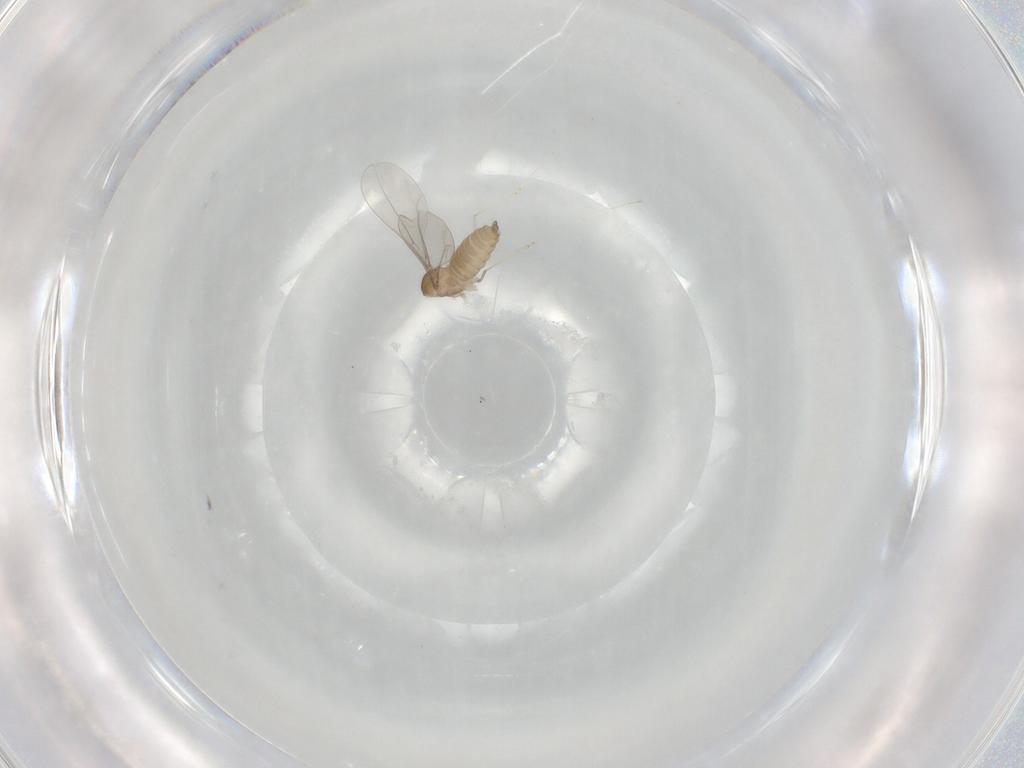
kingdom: Animalia
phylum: Arthropoda
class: Insecta
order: Diptera
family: Cecidomyiidae
